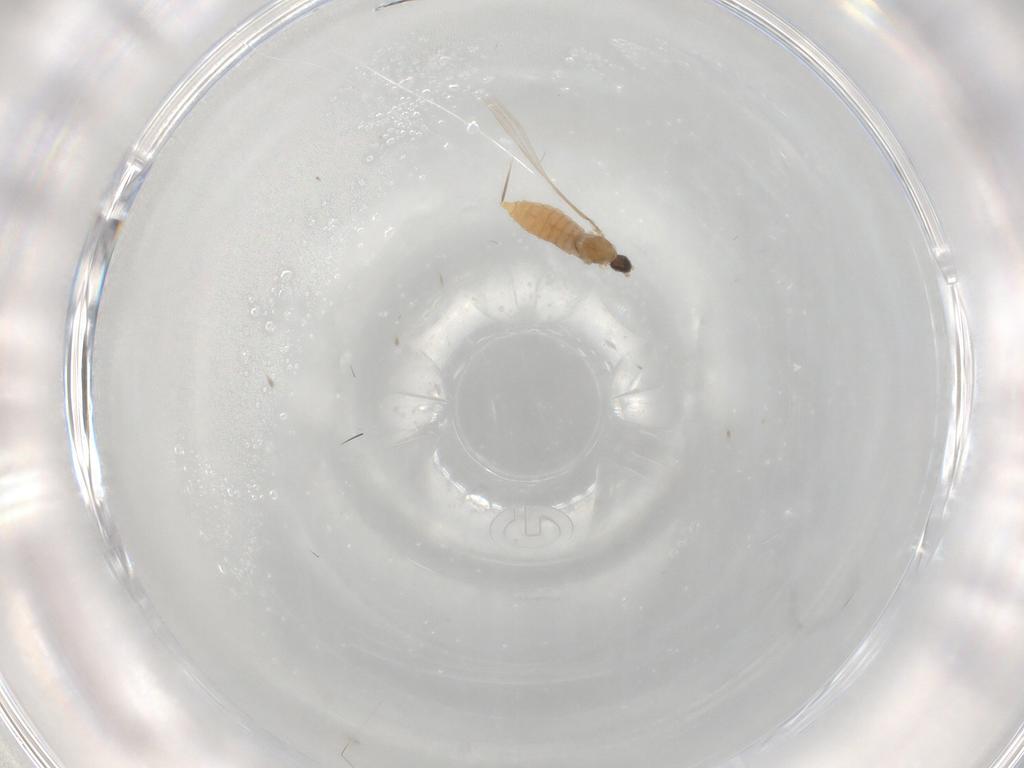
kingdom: Animalia
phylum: Arthropoda
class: Insecta
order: Diptera
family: Cecidomyiidae
